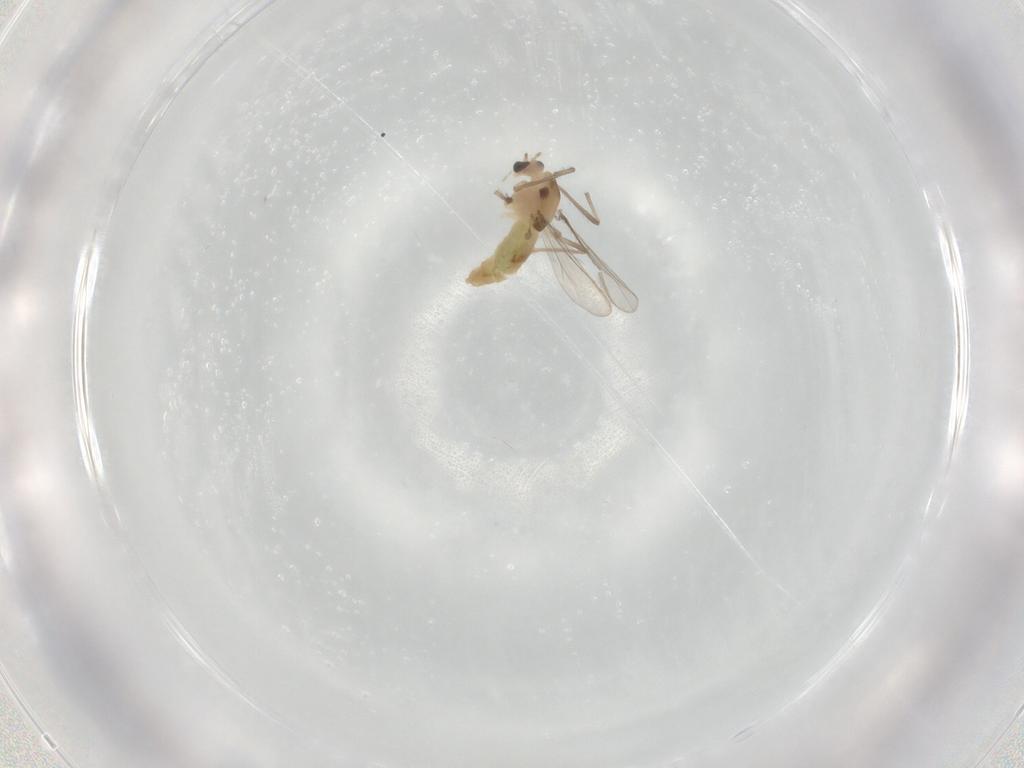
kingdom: Animalia
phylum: Arthropoda
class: Insecta
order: Diptera
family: Chironomidae
